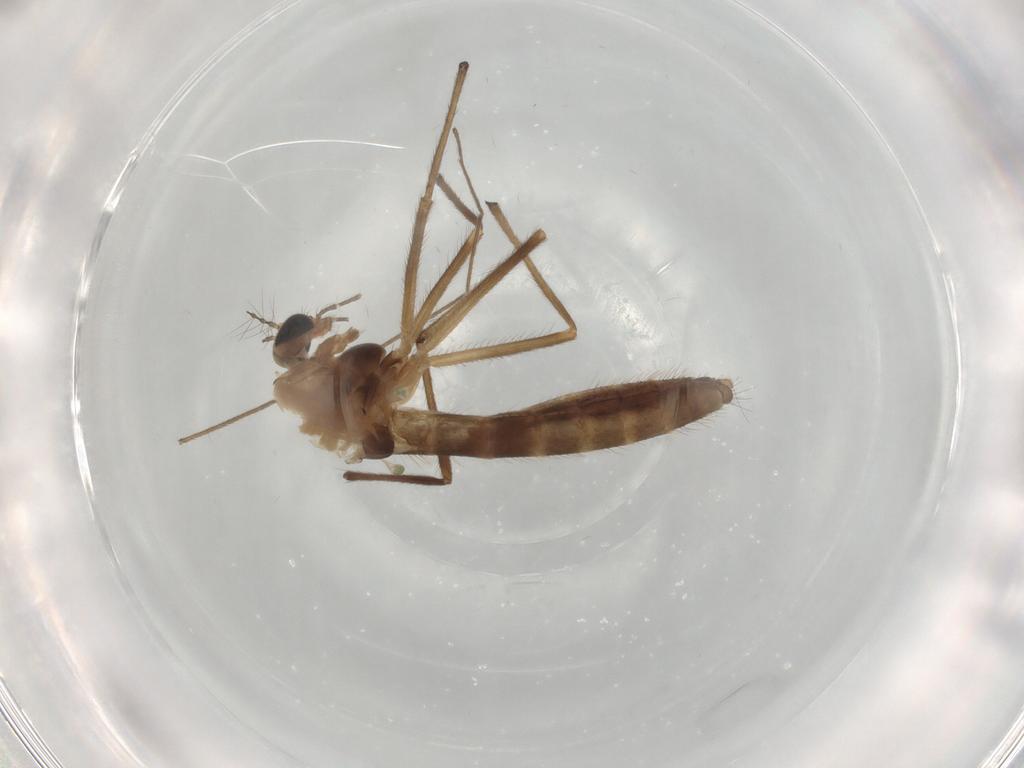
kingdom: Animalia
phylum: Arthropoda
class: Insecta
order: Diptera
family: Chironomidae
